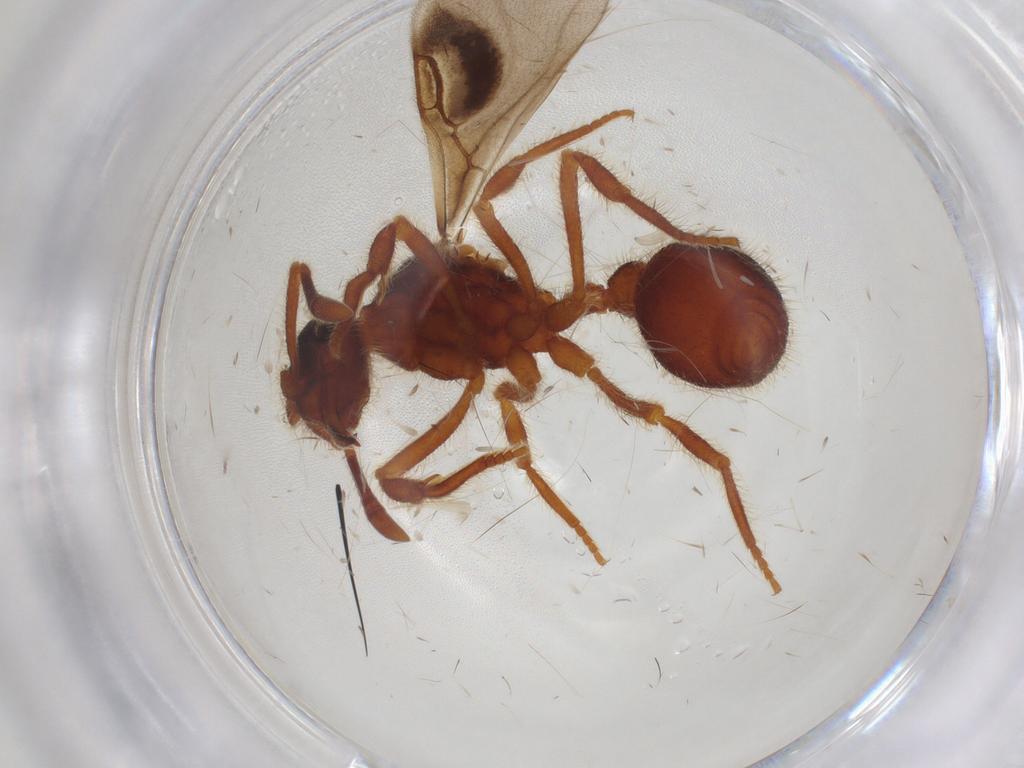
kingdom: Animalia
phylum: Arthropoda
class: Insecta
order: Hymenoptera
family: Formicidae
